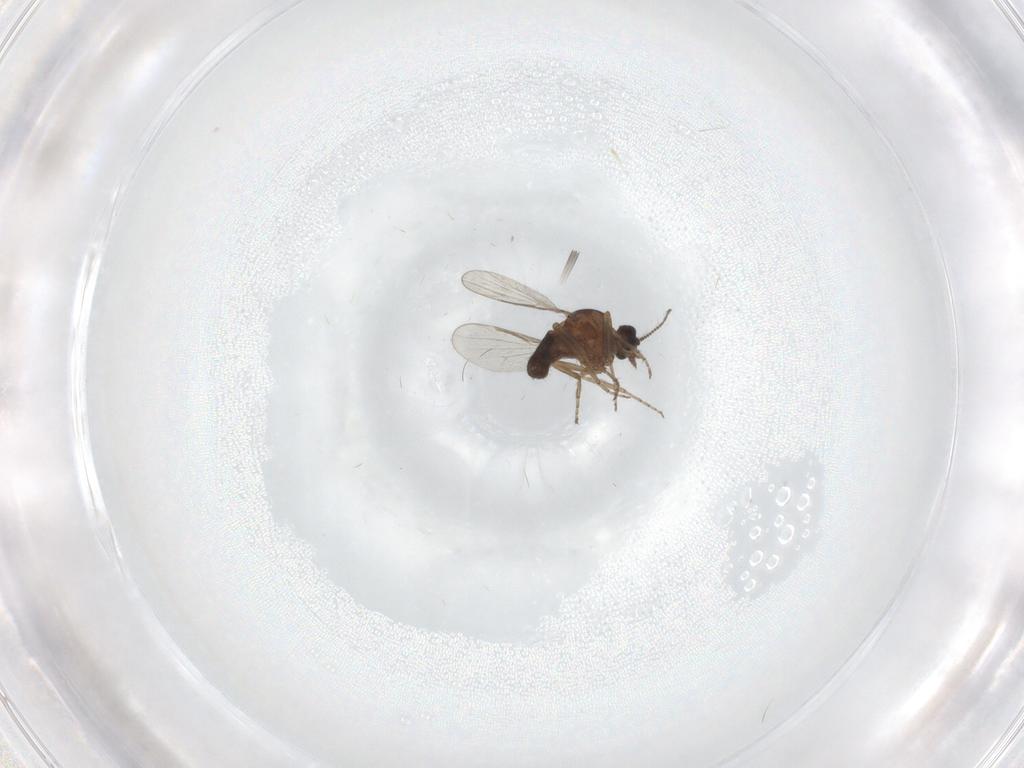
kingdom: Animalia
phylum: Arthropoda
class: Insecta
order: Diptera
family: Ceratopogonidae
